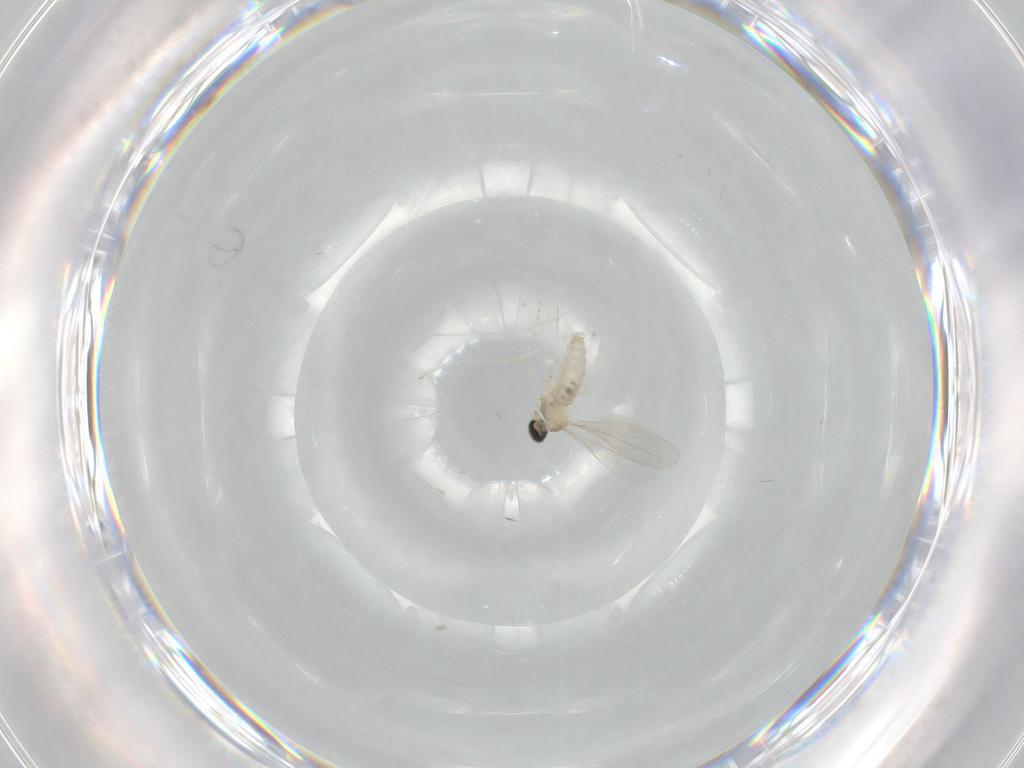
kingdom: Animalia
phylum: Arthropoda
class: Insecta
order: Diptera
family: Cecidomyiidae
